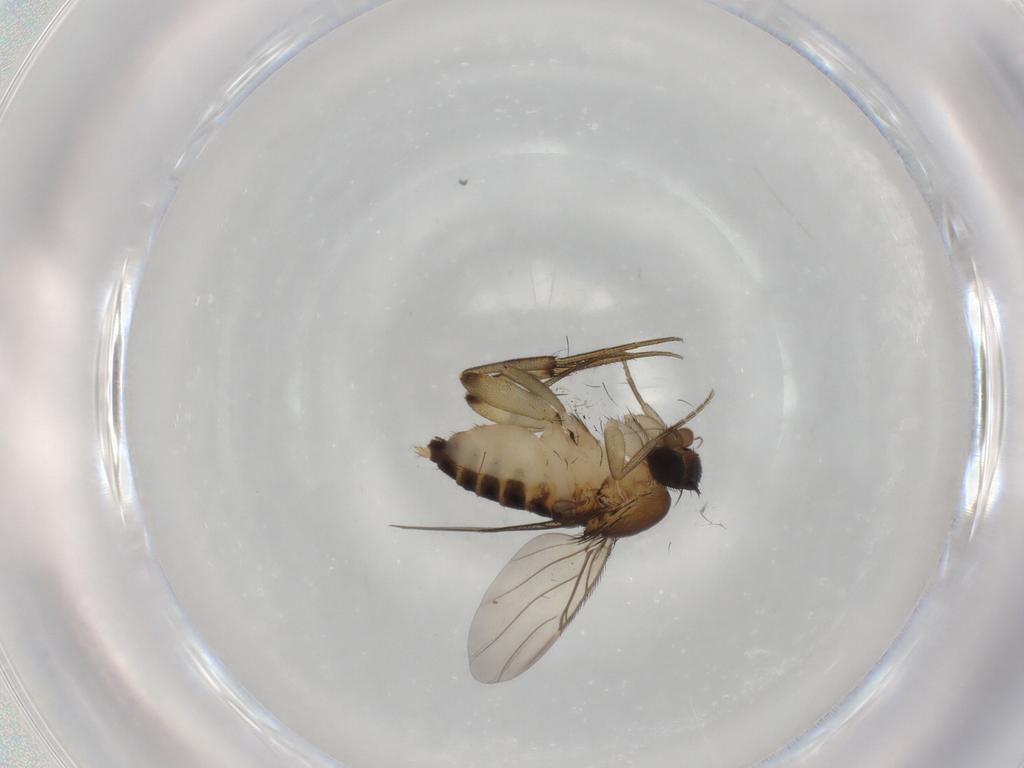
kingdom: Animalia
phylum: Arthropoda
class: Insecta
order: Diptera
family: Phoridae
